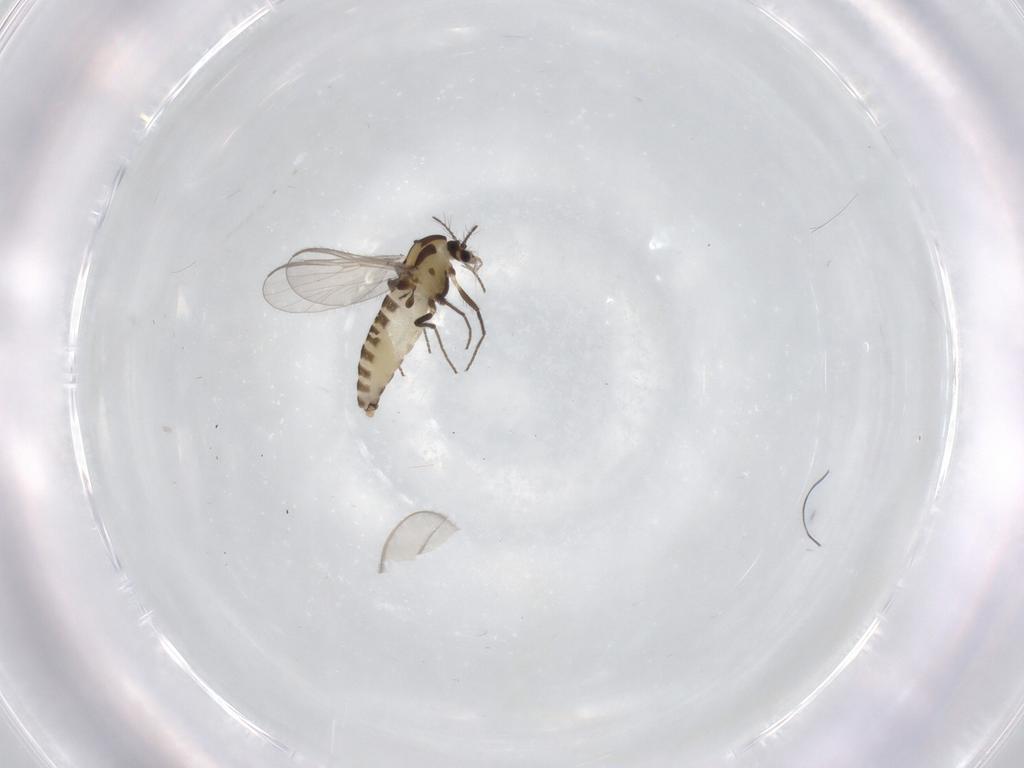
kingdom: Animalia
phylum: Arthropoda
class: Insecta
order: Diptera
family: Chironomidae
